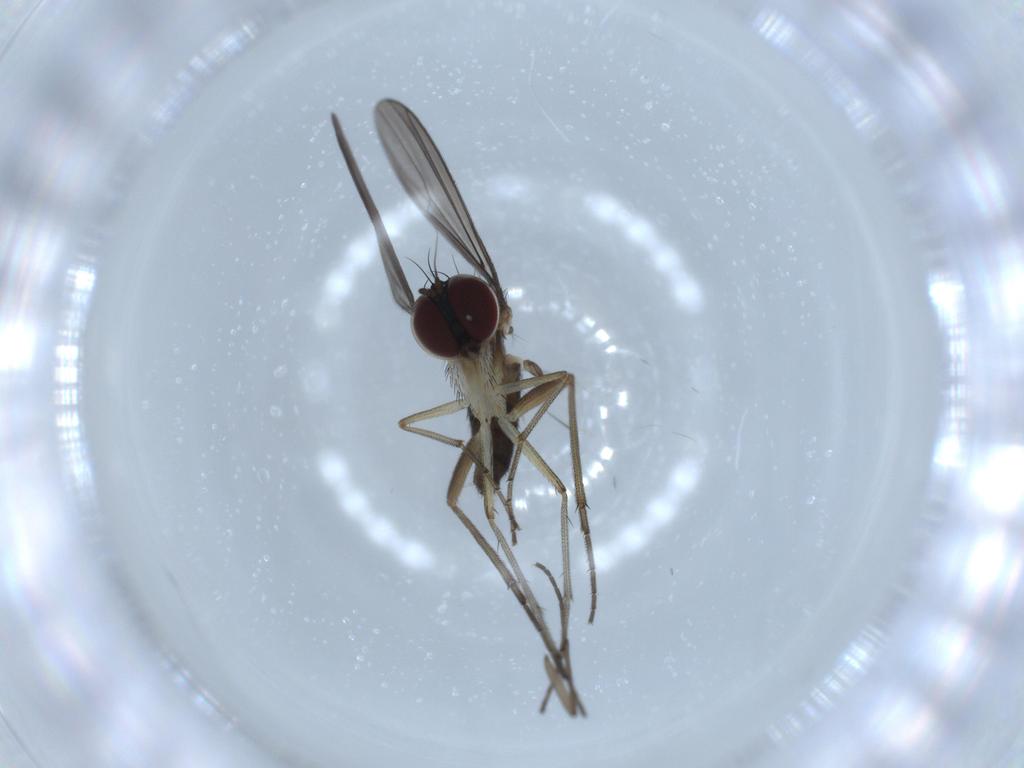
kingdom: Animalia
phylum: Arthropoda
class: Insecta
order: Diptera
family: Dolichopodidae
